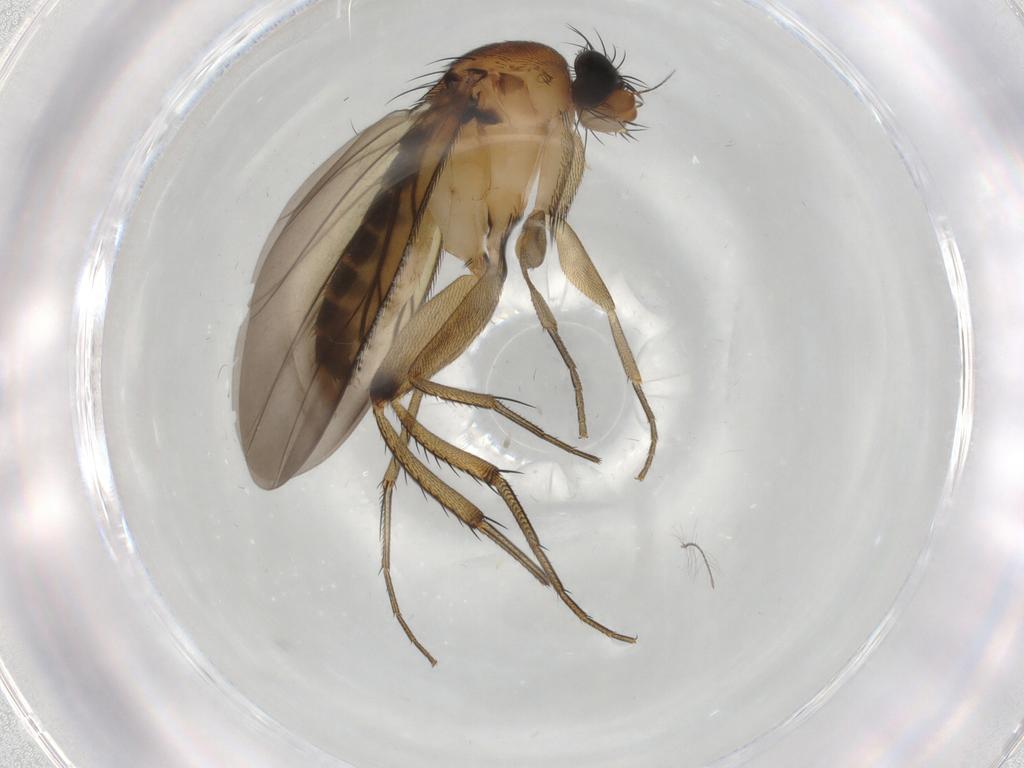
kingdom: Animalia
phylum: Arthropoda
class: Insecta
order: Diptera
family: Phoridae
